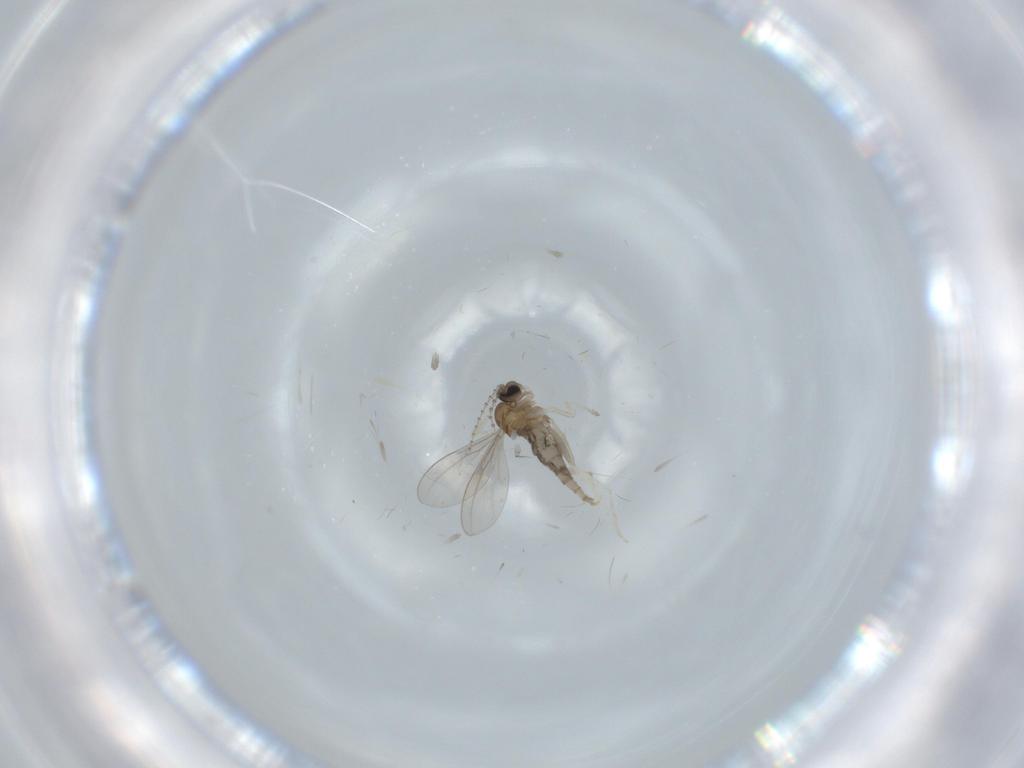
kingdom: Animalia
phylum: Arthropoda
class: Insecta
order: Diptera
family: Cecidomyiidae
